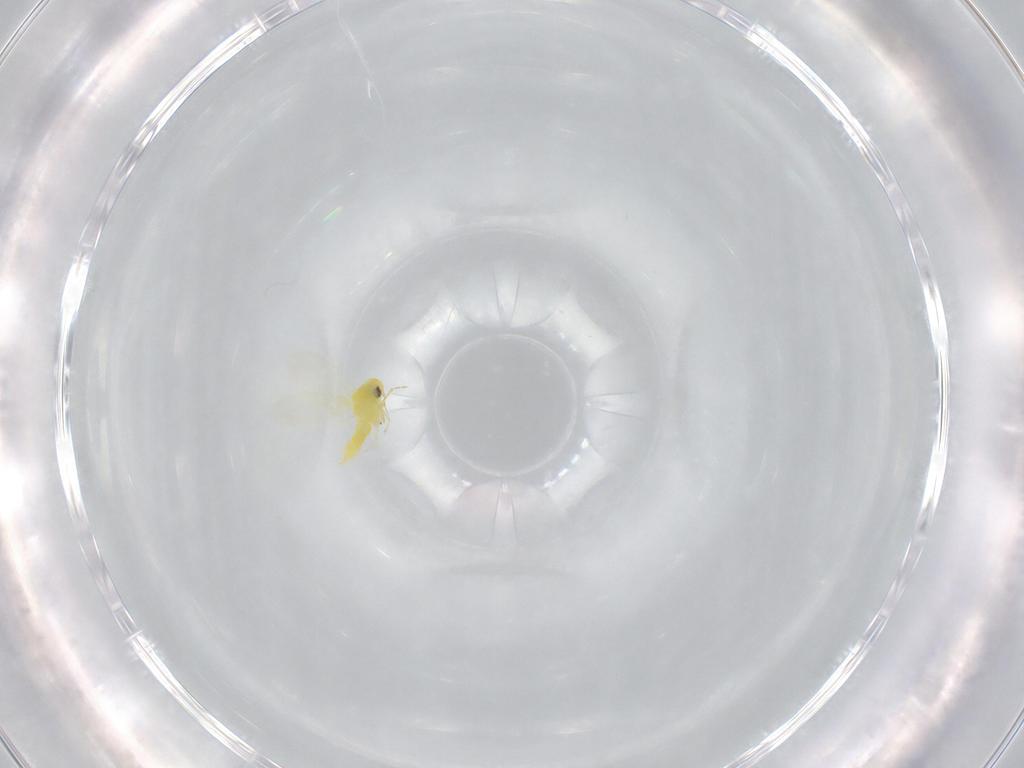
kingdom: Animalia
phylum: Arthropoda
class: Insecta
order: Hemiptera
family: Aleyrodidae
